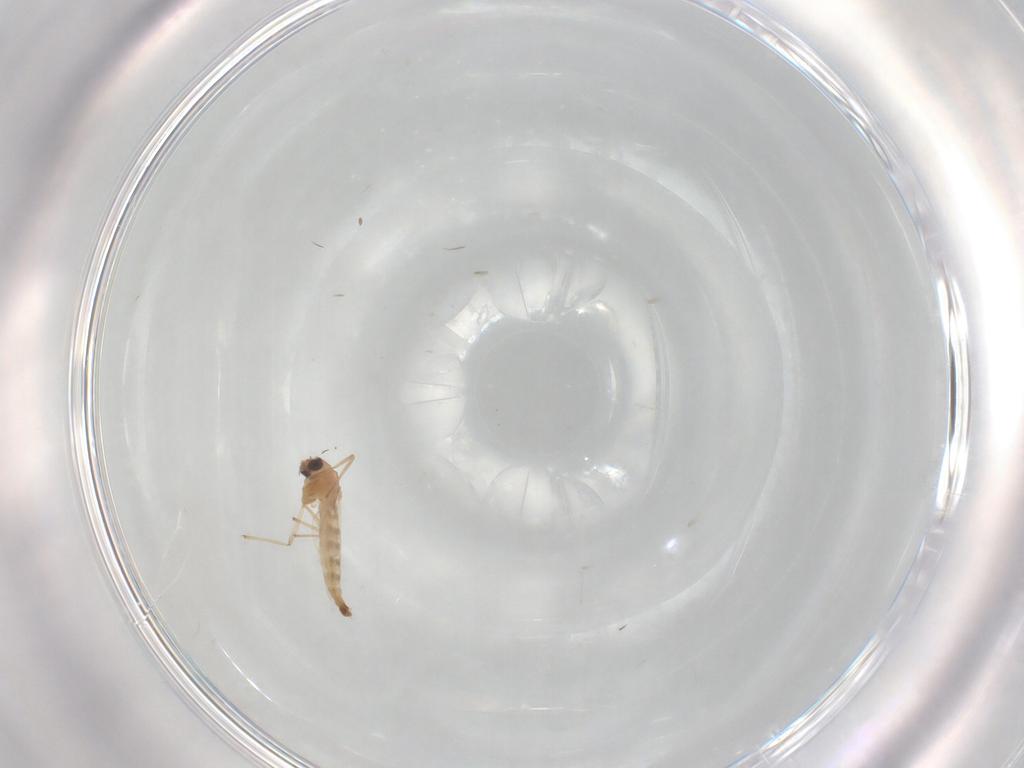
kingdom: Animalia
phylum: Arthropoda
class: Insecta
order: Diptera
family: Chironomidae
